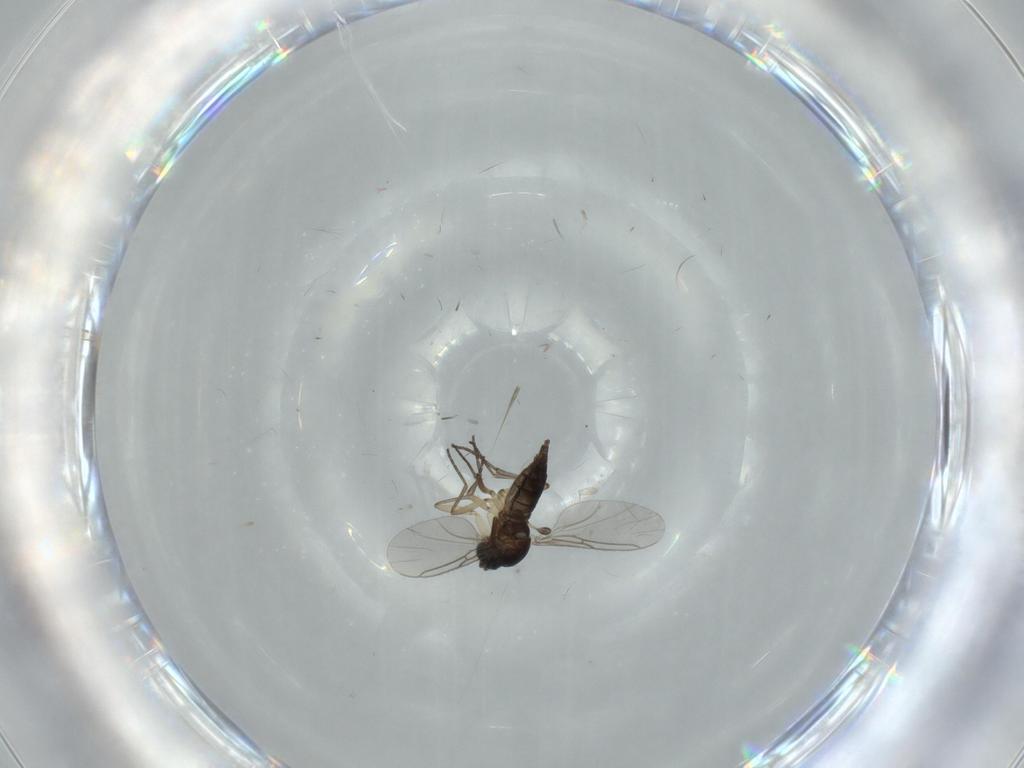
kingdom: Animalia
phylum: Arthropoda
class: Insecta
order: Diptera
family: Sciaridae
